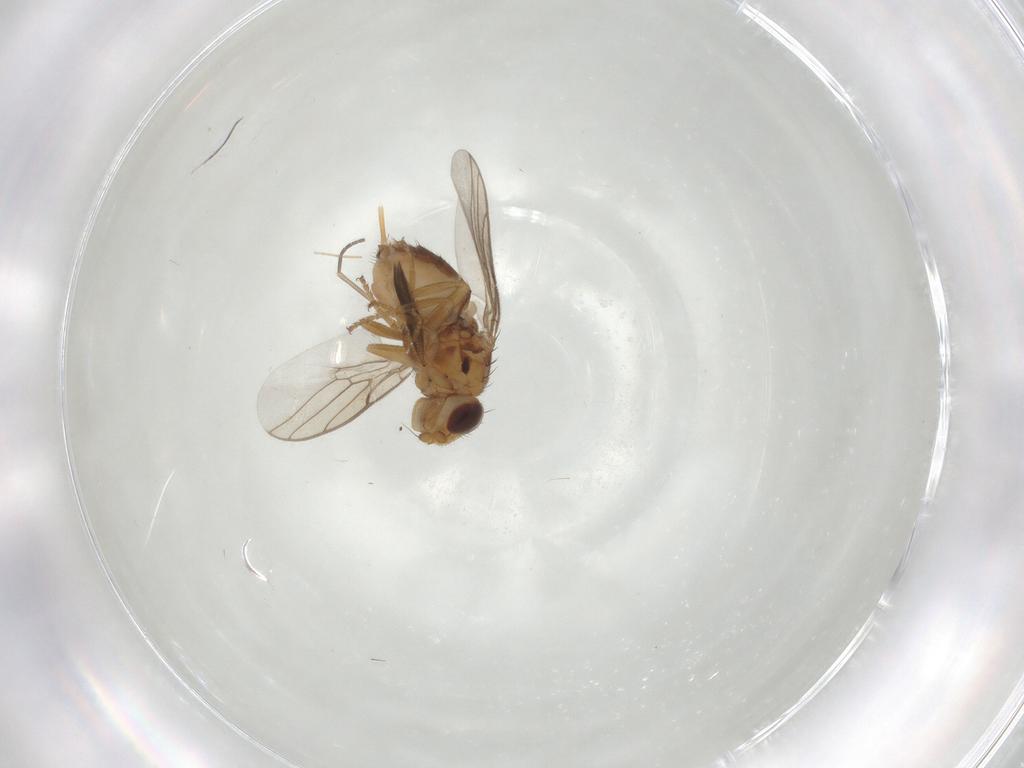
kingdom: Animalia
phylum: Arthropoda
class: Insecta
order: Diptera
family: Chloropidae
